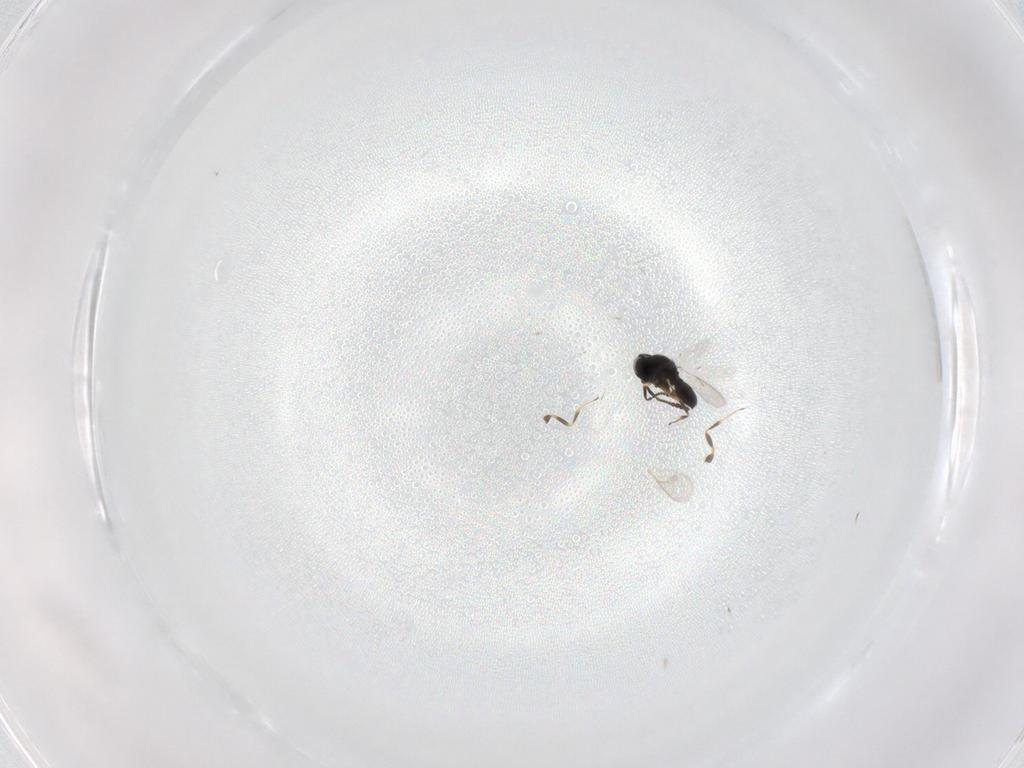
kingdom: Animalia
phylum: Arthropoda
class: Insecta
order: Hymenoptera
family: Scelionidae
